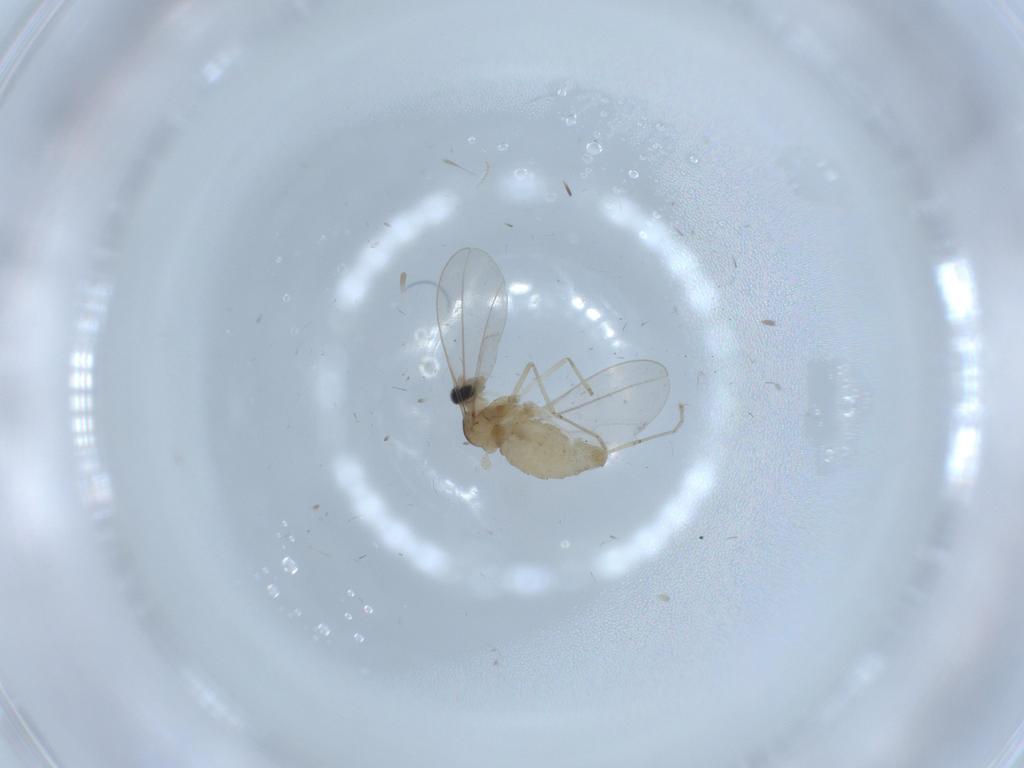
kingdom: Animalia
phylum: Arthropoda
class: Insecta
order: Diptera
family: Cecidomyiidae
